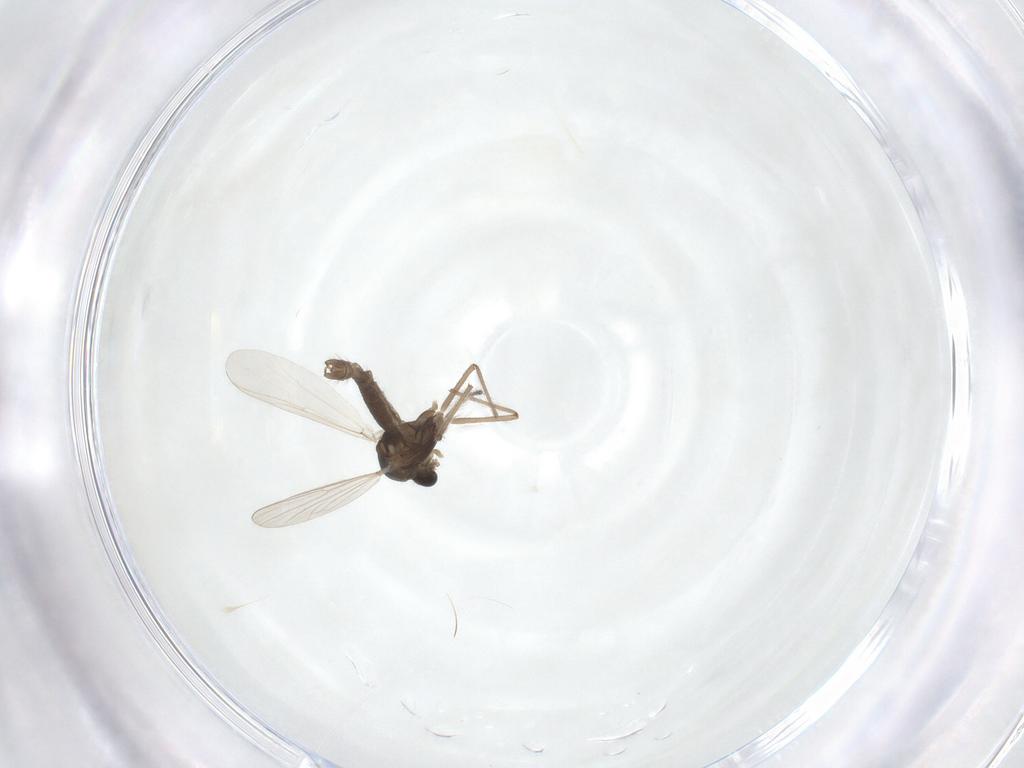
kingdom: Animalia
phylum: Arthropoda
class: Insecta
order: Diptera
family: Chironomidae
